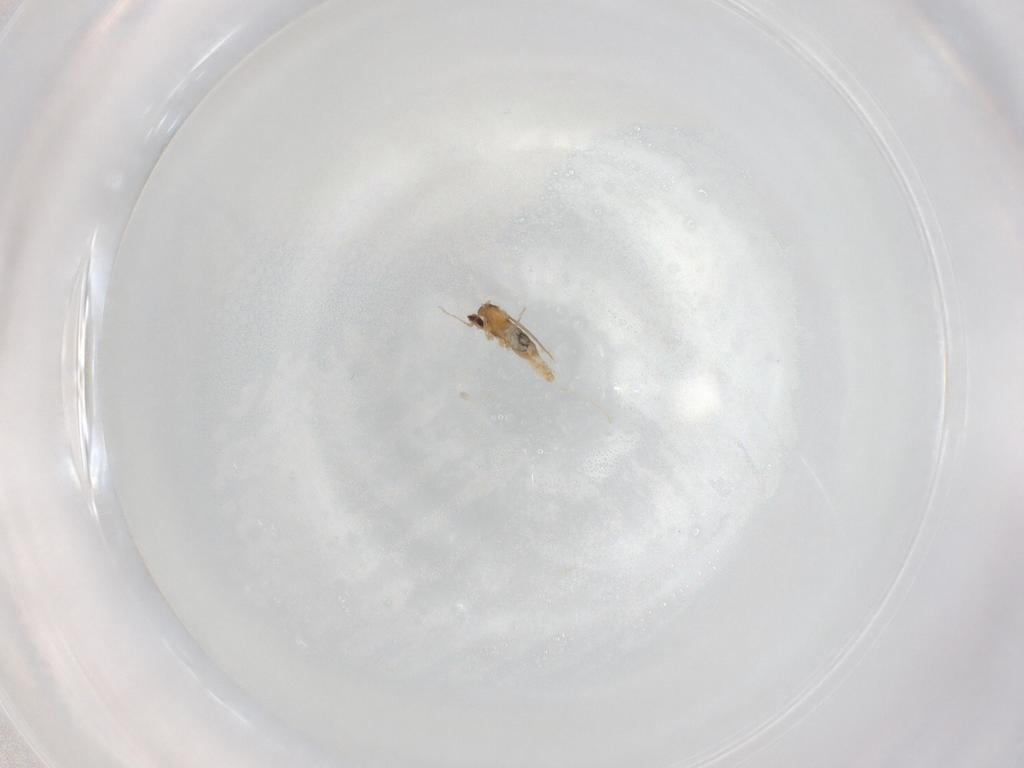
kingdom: Animalia
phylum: Arthropoda
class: Insecta
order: Diptera
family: Cecidomyiidae
